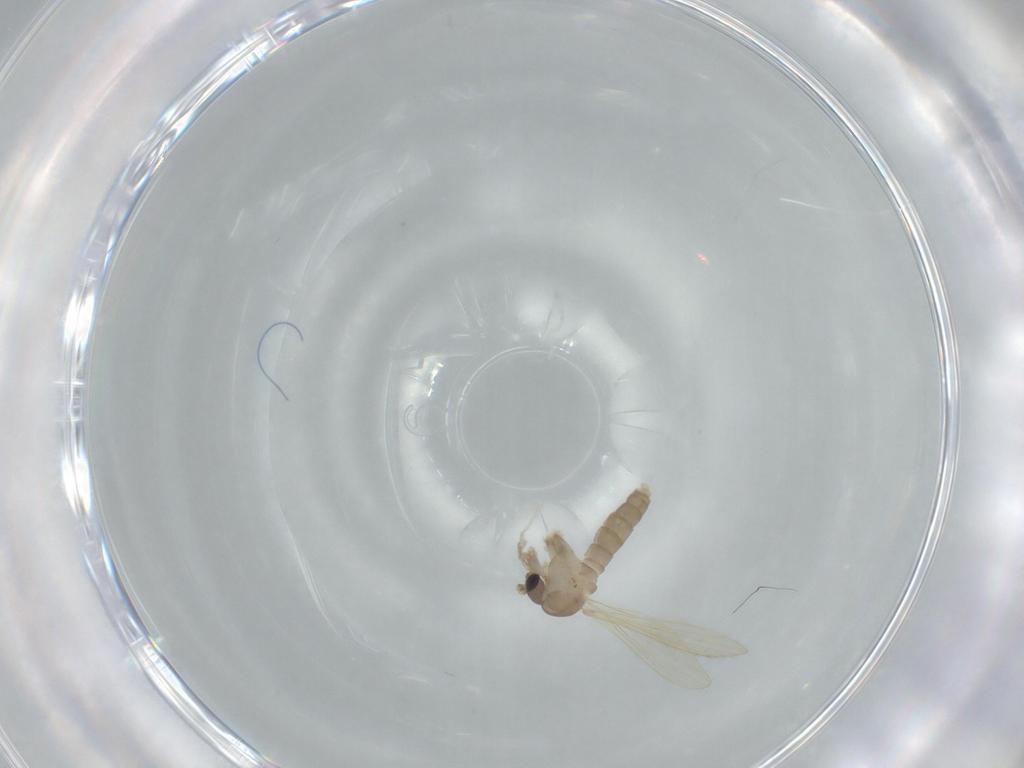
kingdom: Animalia
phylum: Arthropoda
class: Insecta
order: Diptera
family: Psychodidae
